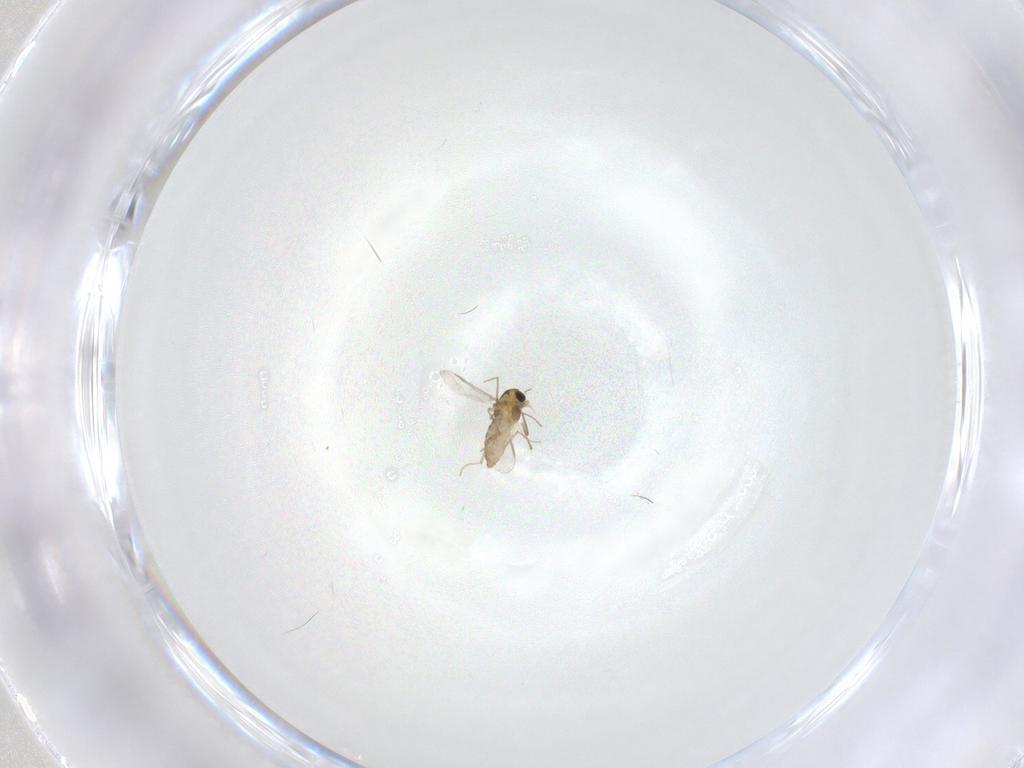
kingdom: Animalia
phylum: Arthropoda
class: Insecta
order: Diptera
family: Chironomidae
